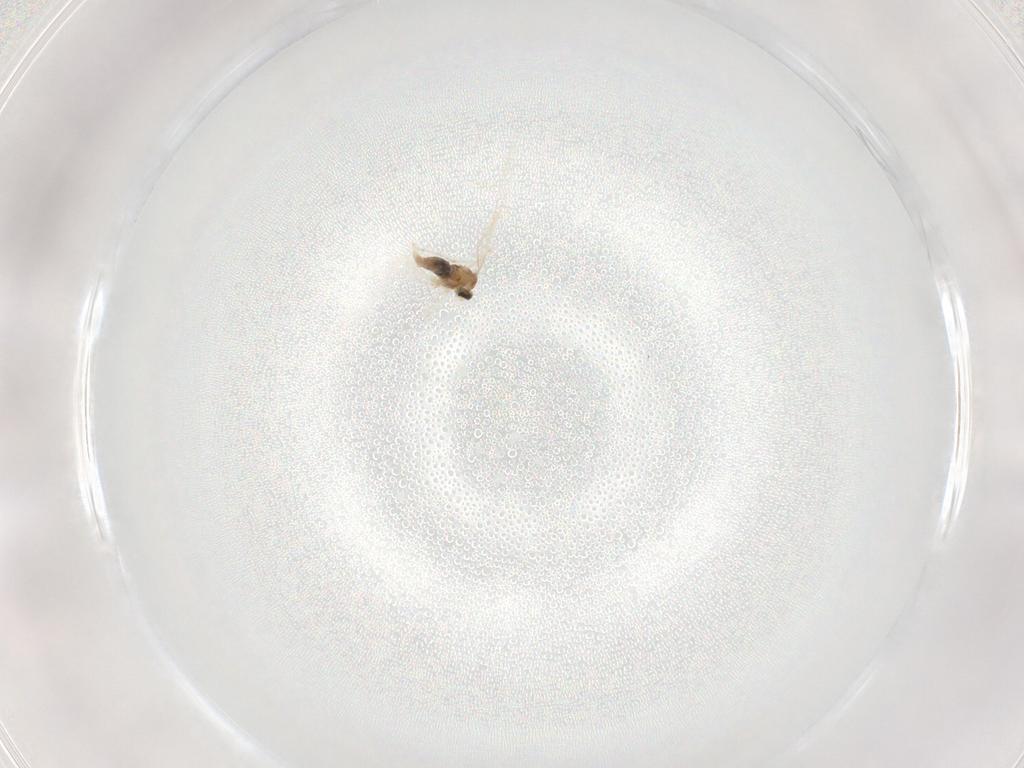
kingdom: Animalia
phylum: Arthropoda
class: Insecta
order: Diptera
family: Cecidomyiidae
